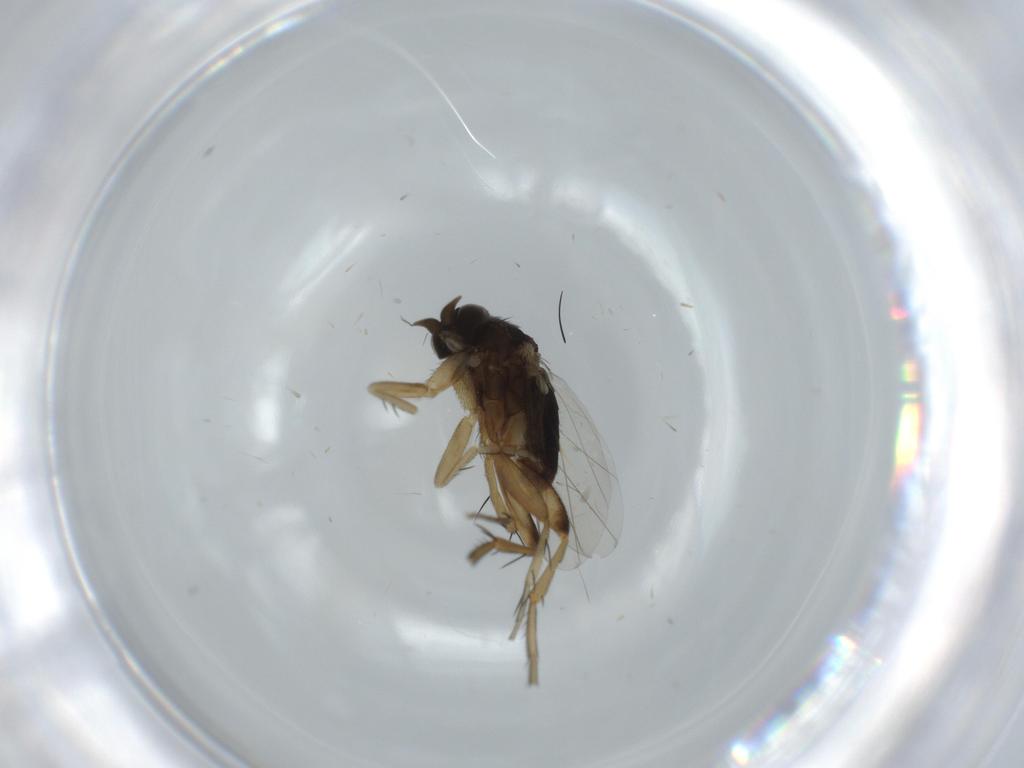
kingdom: Animalia
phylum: Arthropoda
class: Insecta
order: Diptera
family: Phoridae
